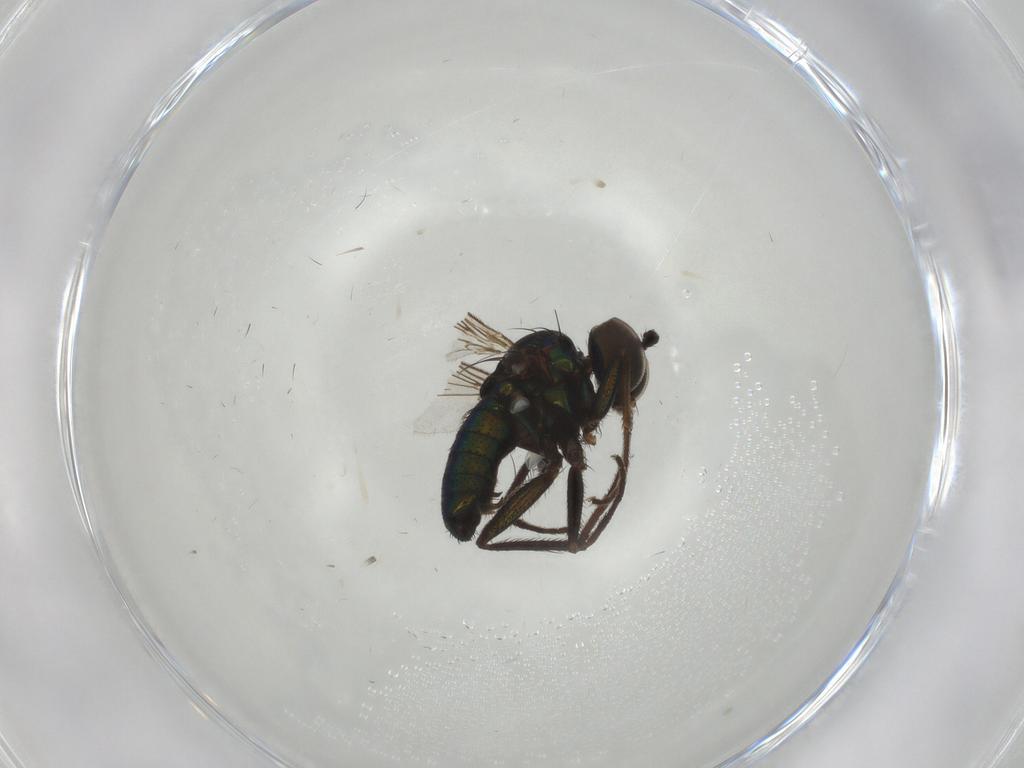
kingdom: Animalia
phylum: Arthropoda
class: Insecta
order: Diptera
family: Dolichopodidae
